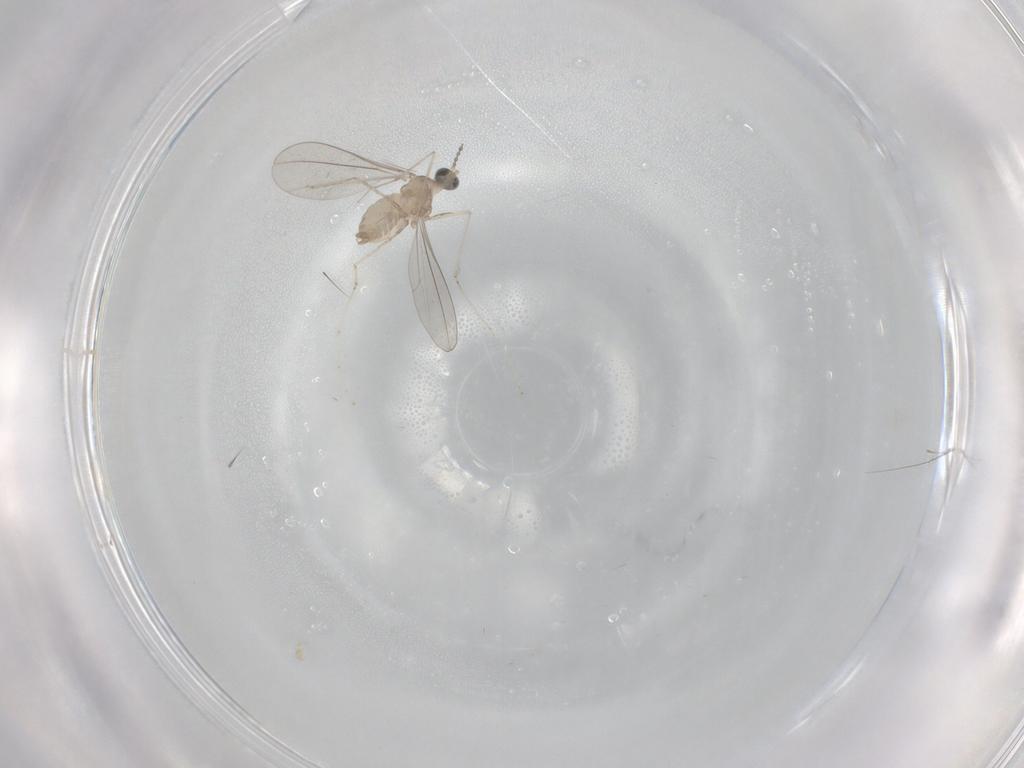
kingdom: Animalia
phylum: Arthropoda
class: Insecta
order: Diptera
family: Cecidomyiidae
